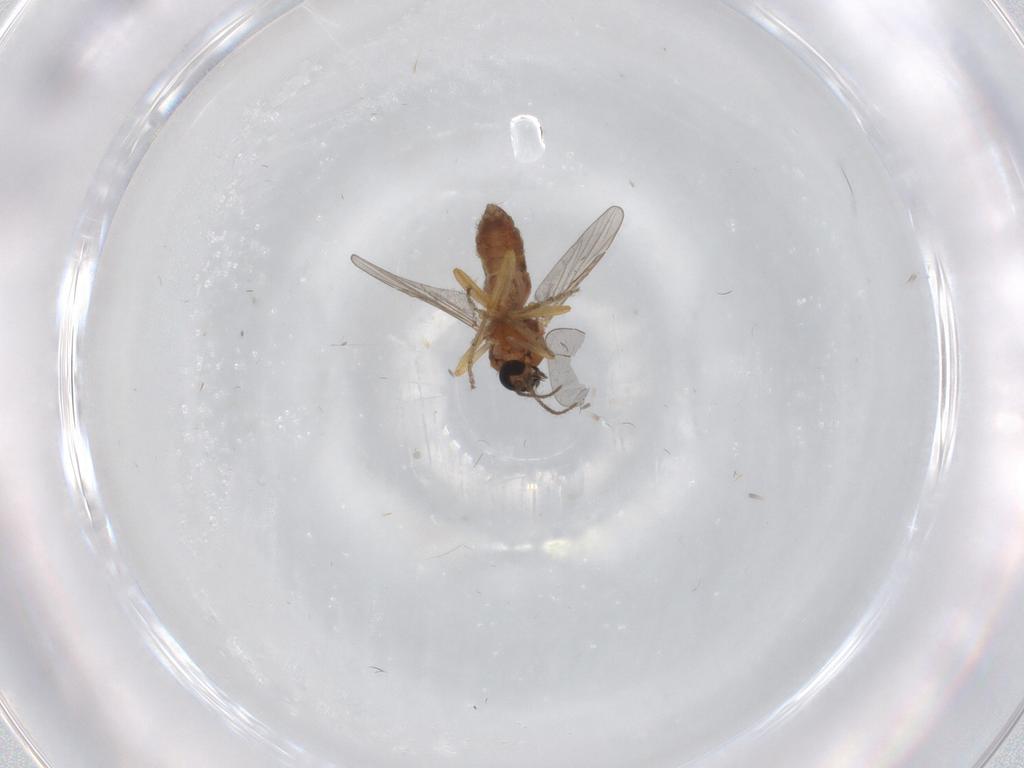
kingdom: Animalia
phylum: Arthropoda
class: Insecta
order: Diptera
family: Ceratopogonidae
